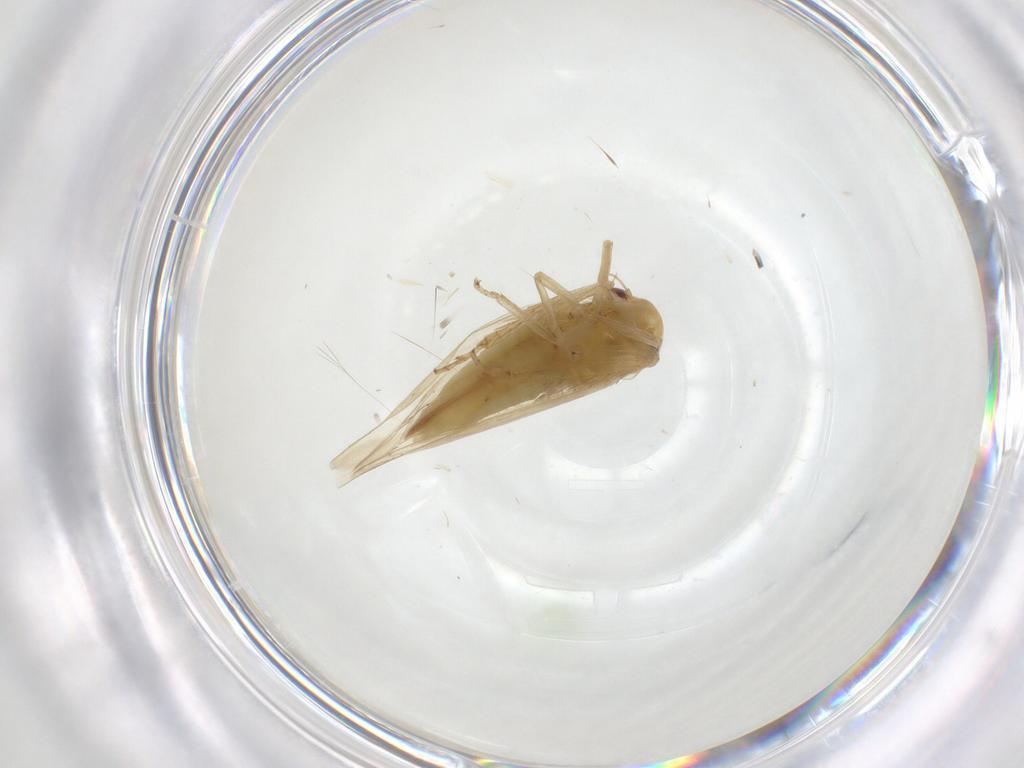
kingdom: Animalia
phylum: Arthropoda
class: Insecta
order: Hemiptera
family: Cicadellidae
